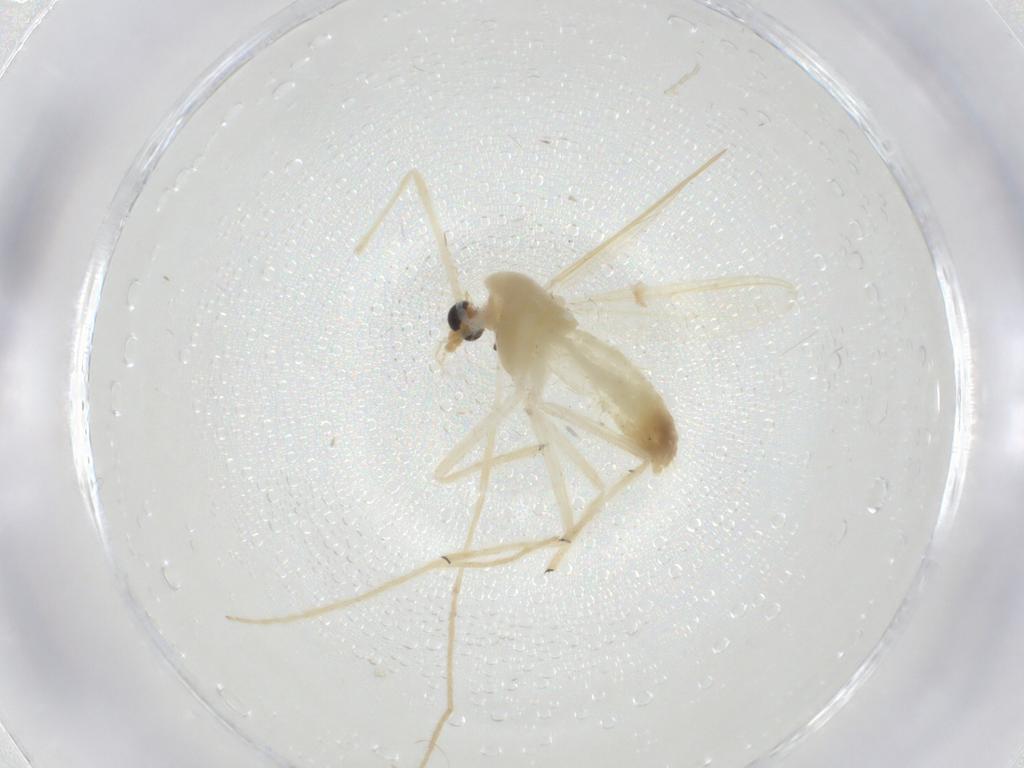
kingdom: Animalia
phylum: Arthropoda
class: Insecta
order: Diptera
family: Chironomidae
